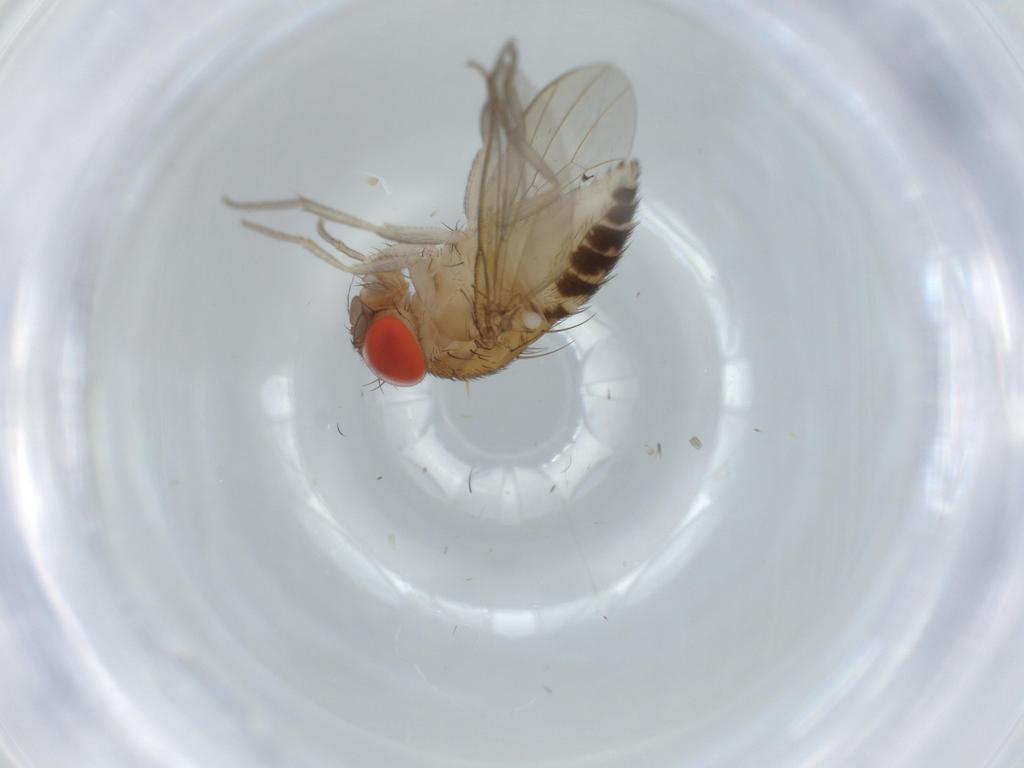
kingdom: Animalia
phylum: Arthropoda
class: Insecta
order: Diptera
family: Drosophilidae
